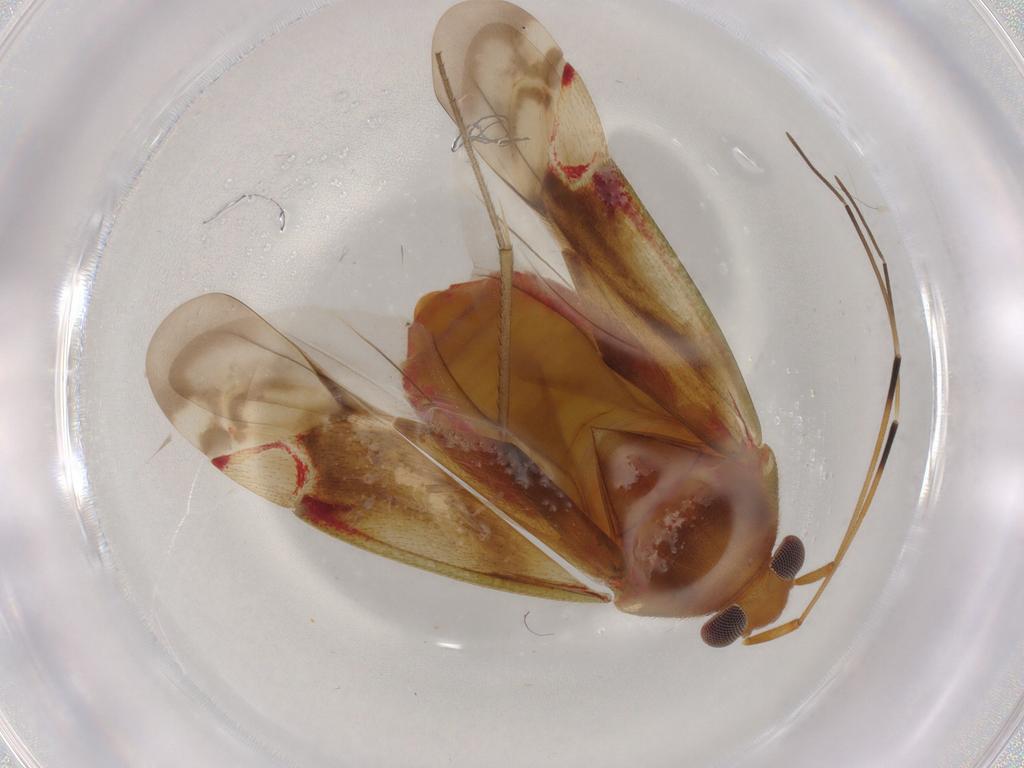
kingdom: Animalia
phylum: Arthropoda
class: Insecta
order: Hemiptera
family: Miridae
